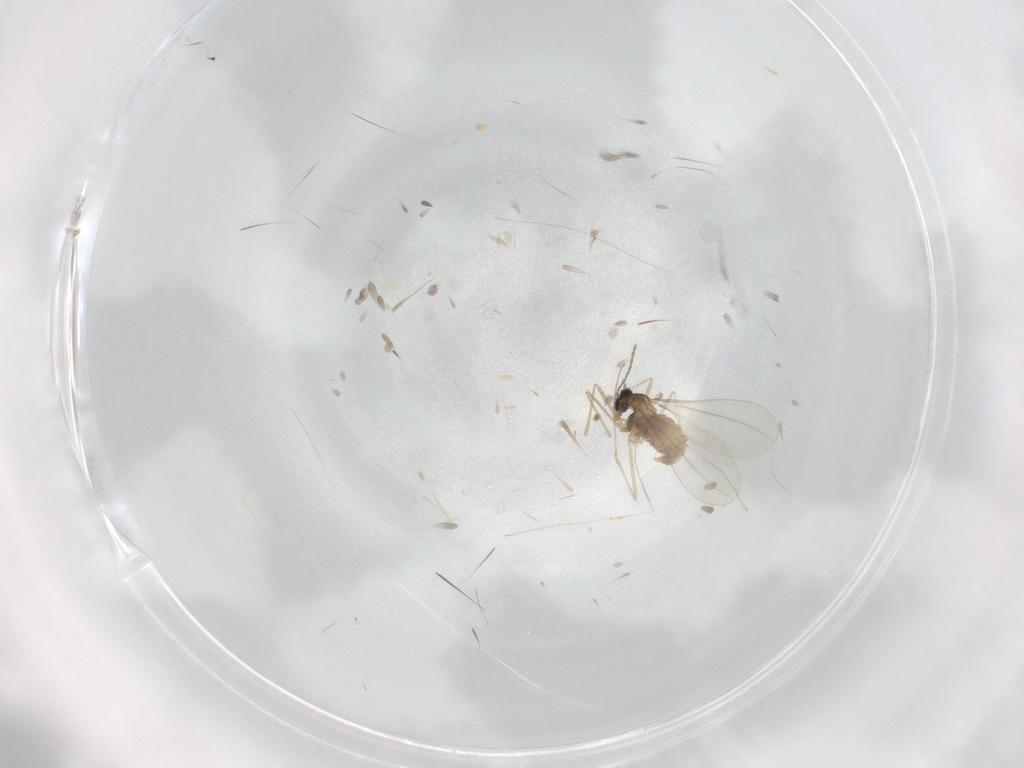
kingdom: Animalia
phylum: Arthropoda
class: Insecta
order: Diptera
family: Cecidomyiidae
